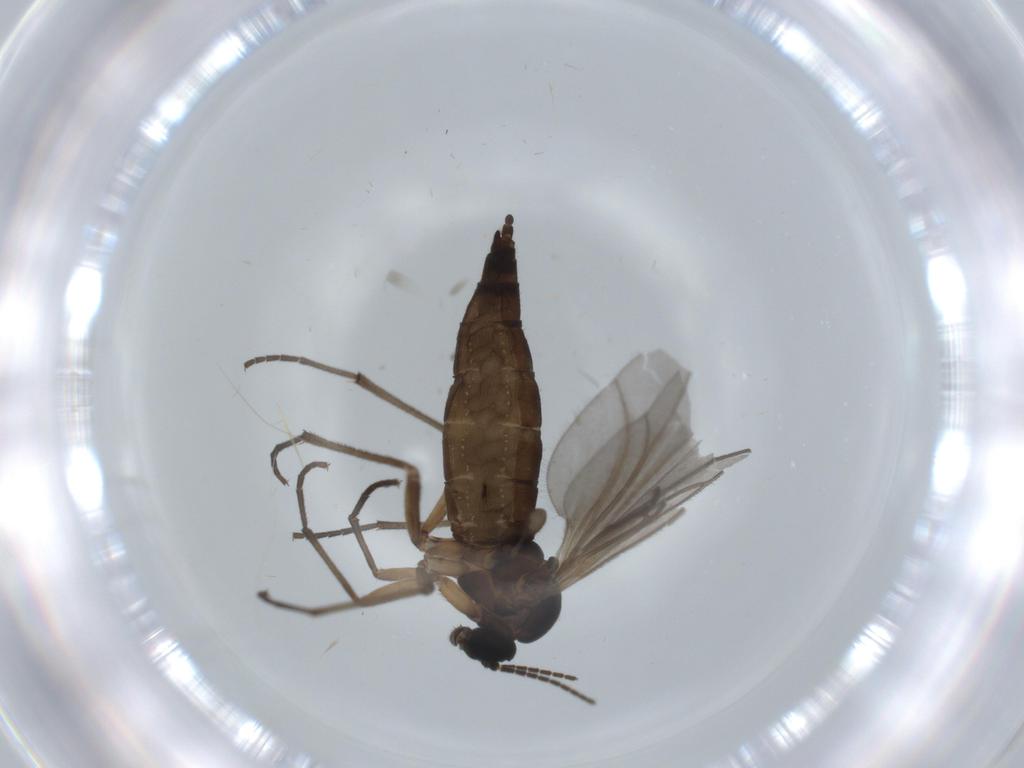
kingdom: Animalia
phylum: Arthropoda
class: Insecta
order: Diptera
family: Sciaridae
